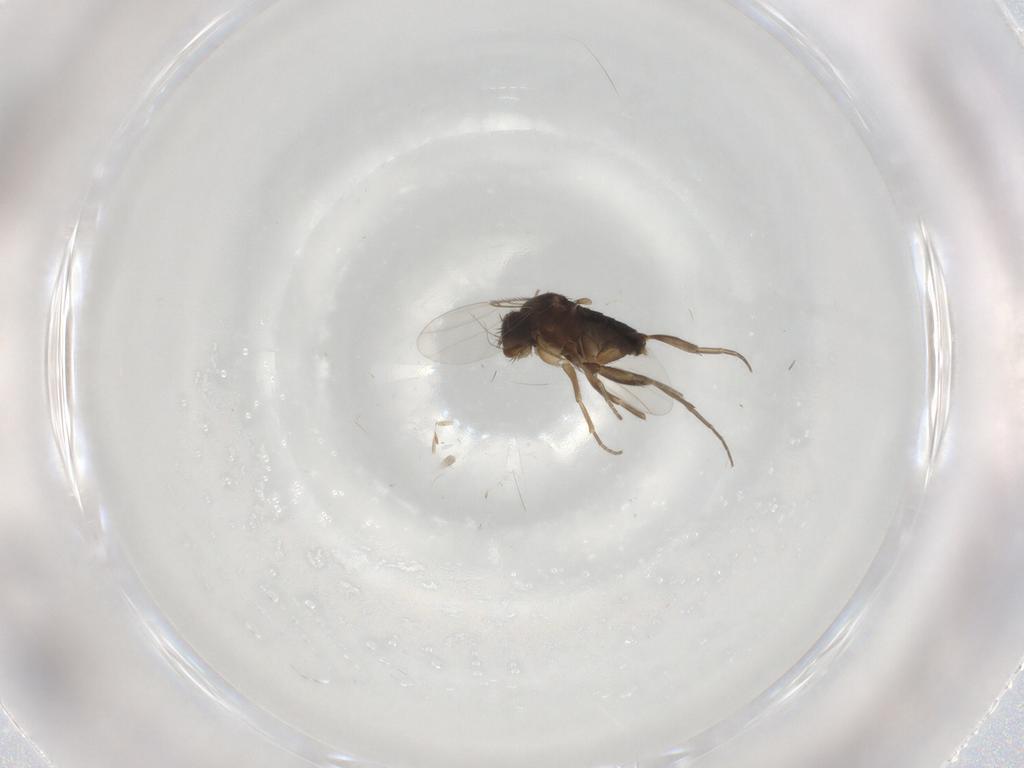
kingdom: Animalia
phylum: Arthropoda
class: Insecta
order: Diptera
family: Phoridae
